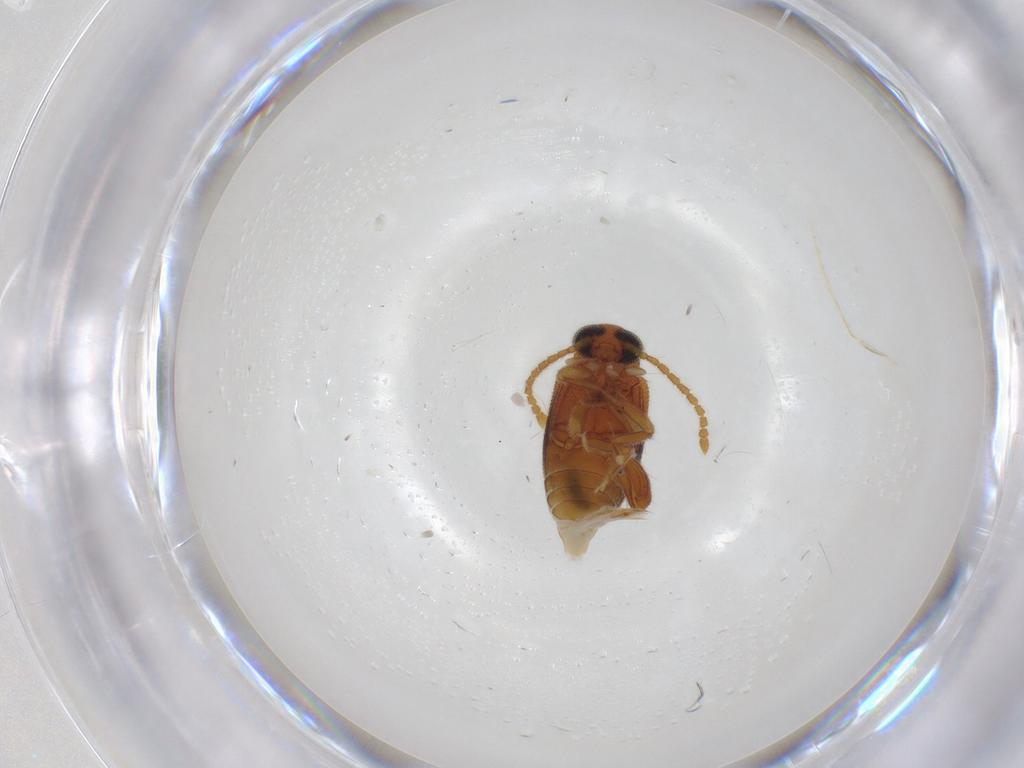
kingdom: Animalia
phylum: Arthropoda
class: Insecta
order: Coleoptera
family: Aderidae
